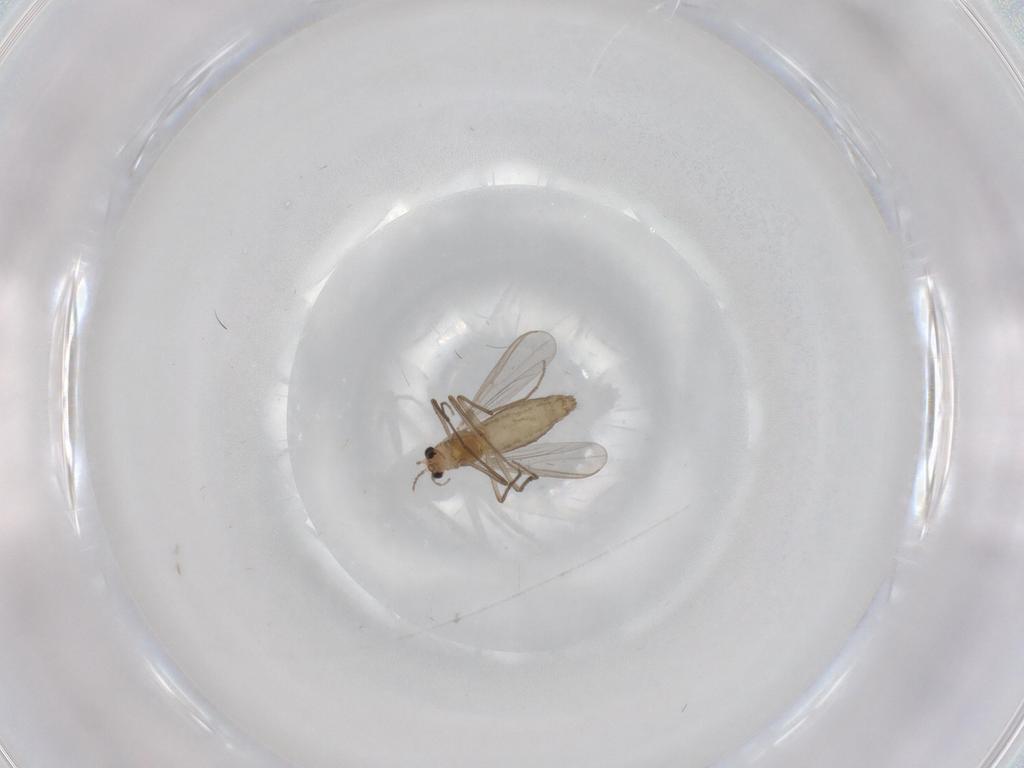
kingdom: Animalia
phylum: Arthropoda
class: Insecta
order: Diptera
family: Chironomidae
